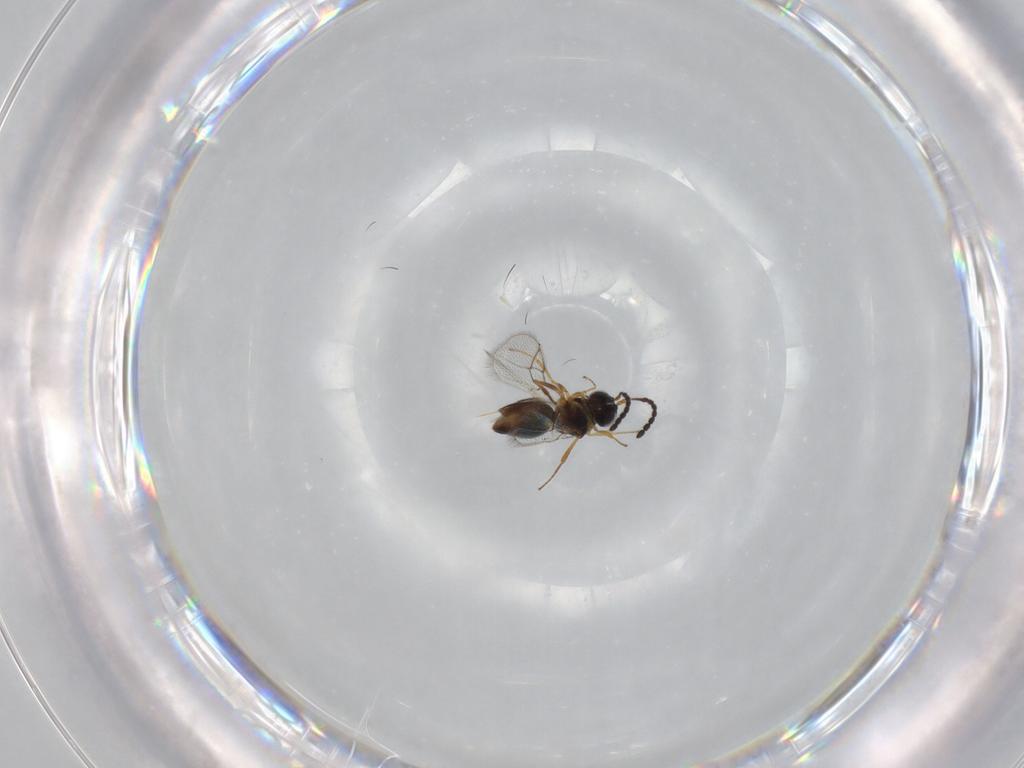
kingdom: Animalia
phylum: Arthropoda
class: Insecta
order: Hymenoptera
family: Figitidae
